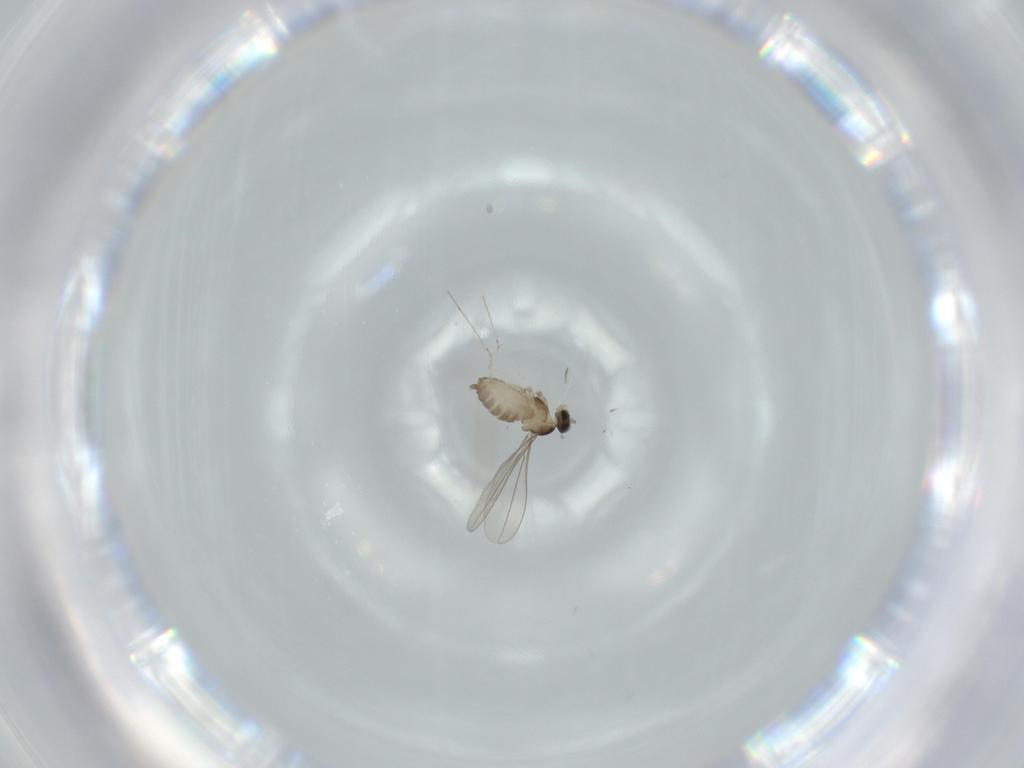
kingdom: Animalia
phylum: Arthropoda
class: Insecta
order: Diptera
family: Cecidomyiidae
